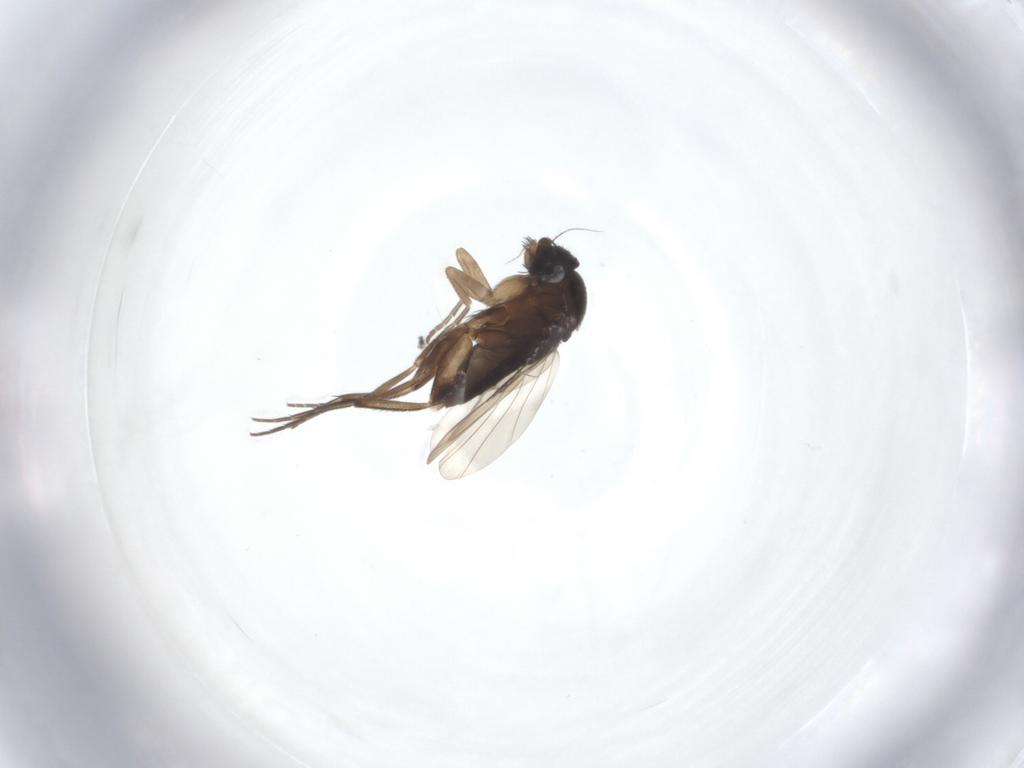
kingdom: Animalia
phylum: Arthropoda
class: Insecta
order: Diptera
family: Phoridae
